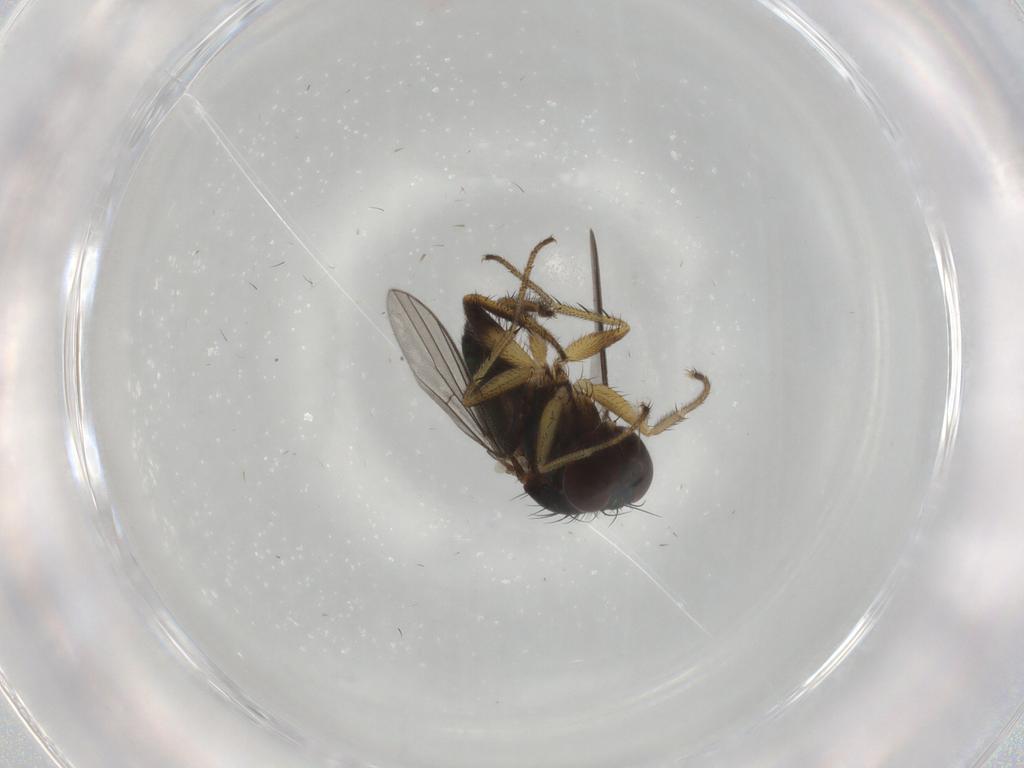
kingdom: Animalia
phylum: Arthropoda
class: Insecta
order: Diptera
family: Dolichopodidae
